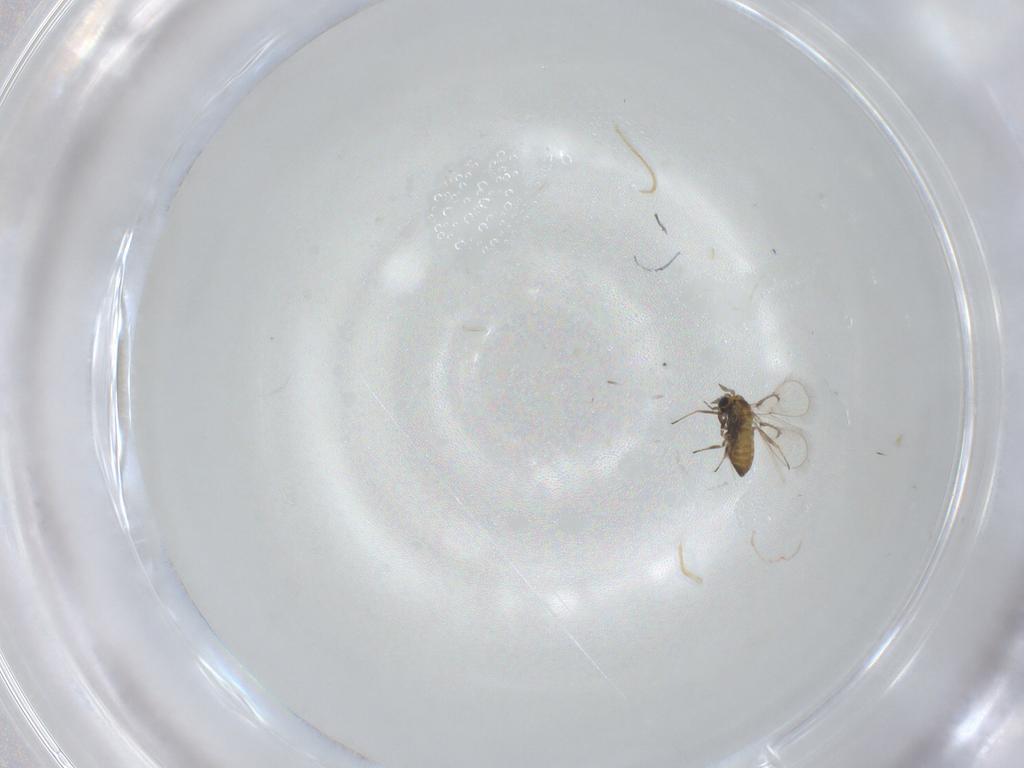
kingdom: Animalia
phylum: Arthropoda
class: Insecta
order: Hymenoptera
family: Trichogrammatidae
